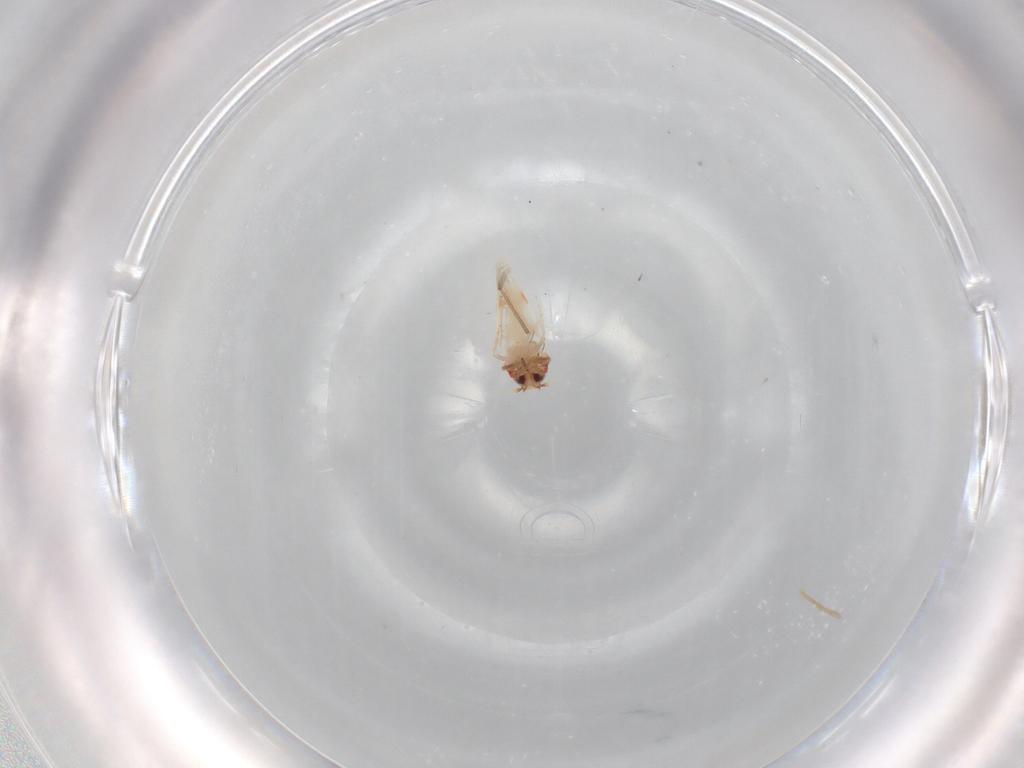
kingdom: Animalia
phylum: Arthropoda
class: Insecta
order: Hemiptera
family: Aleyrodidae
